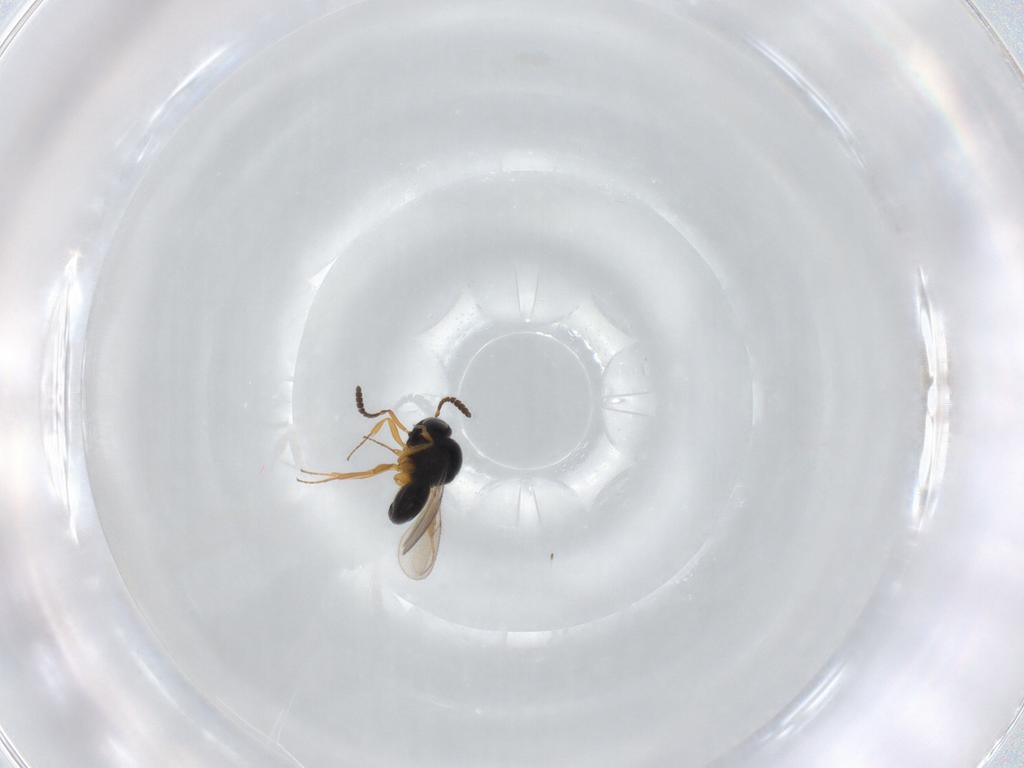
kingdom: Animalia
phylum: Arthropoda
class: Insecta
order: Hymenoptera
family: Scelionidae
